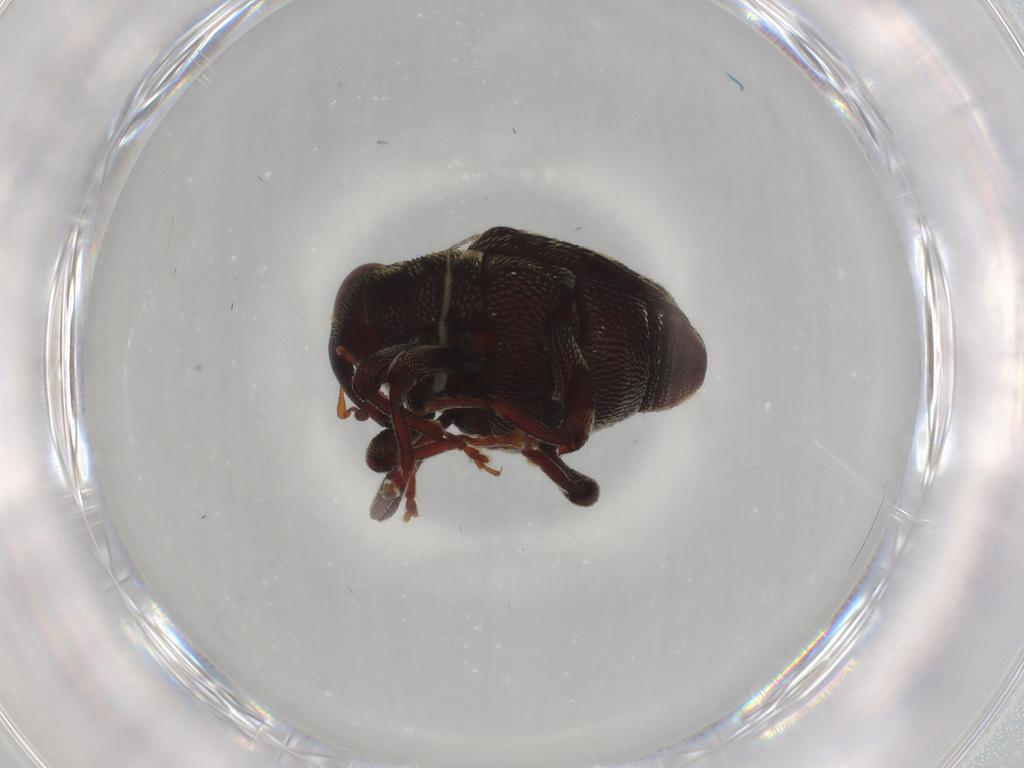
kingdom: Animalia
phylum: Arthropoda
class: Insecta
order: Coleoptera
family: Curculionidae
